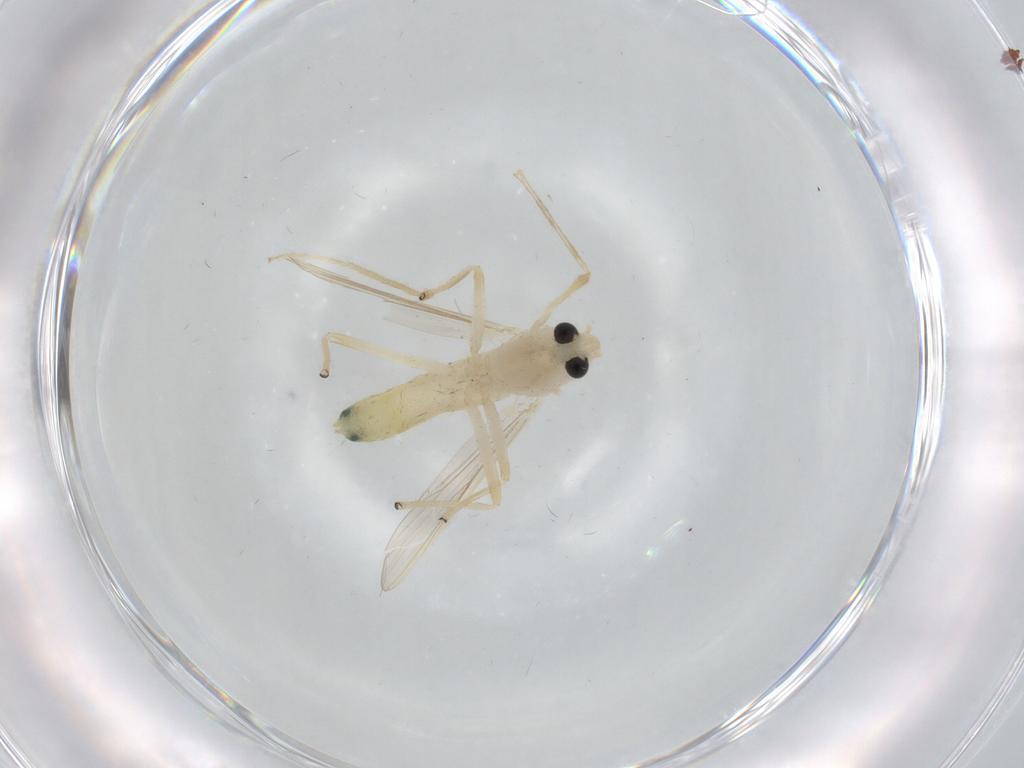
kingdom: Animalia
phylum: Arthropoda
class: Insecta
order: Diptera
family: Chironomidae
